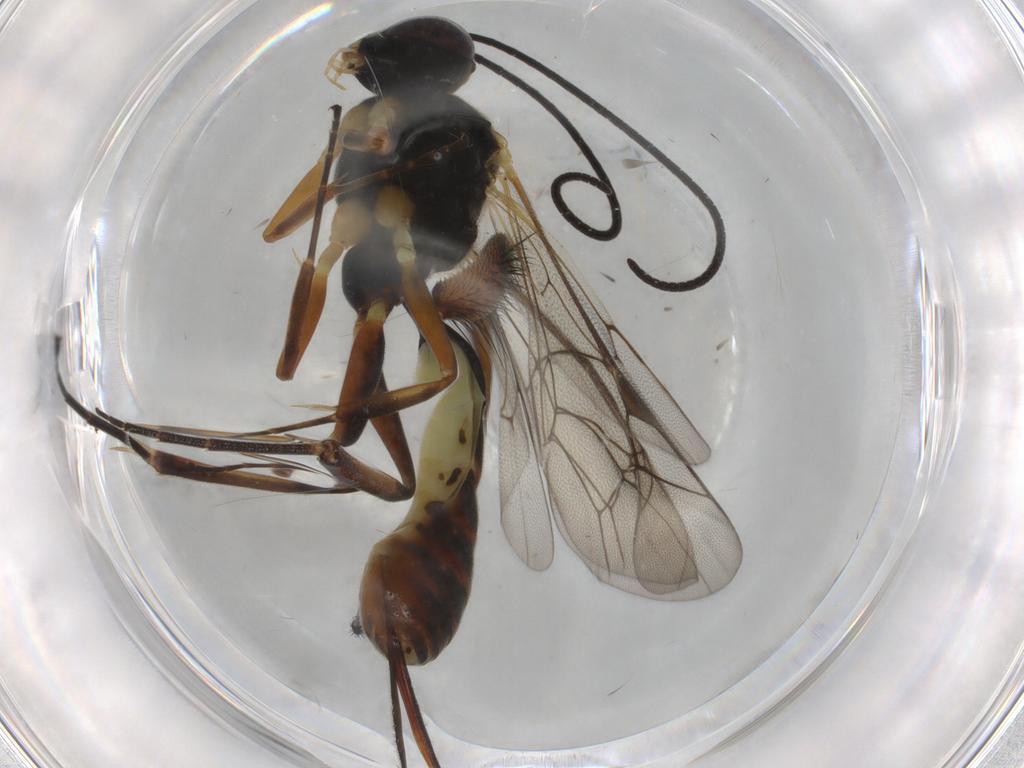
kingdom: Animalia
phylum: Arthropoda
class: Insecta
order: Hymenoptera
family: Ichneumonidae
